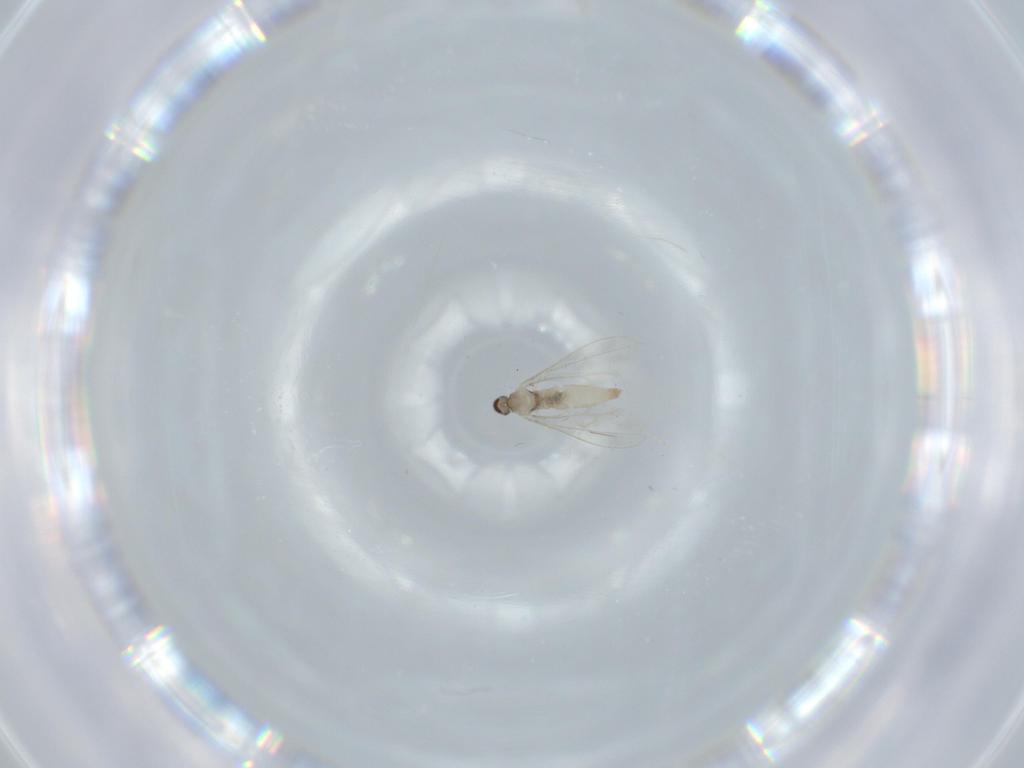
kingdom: Animalia
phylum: Arthropoda
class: Insecta
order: Diptera
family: Cecidomyiidae
